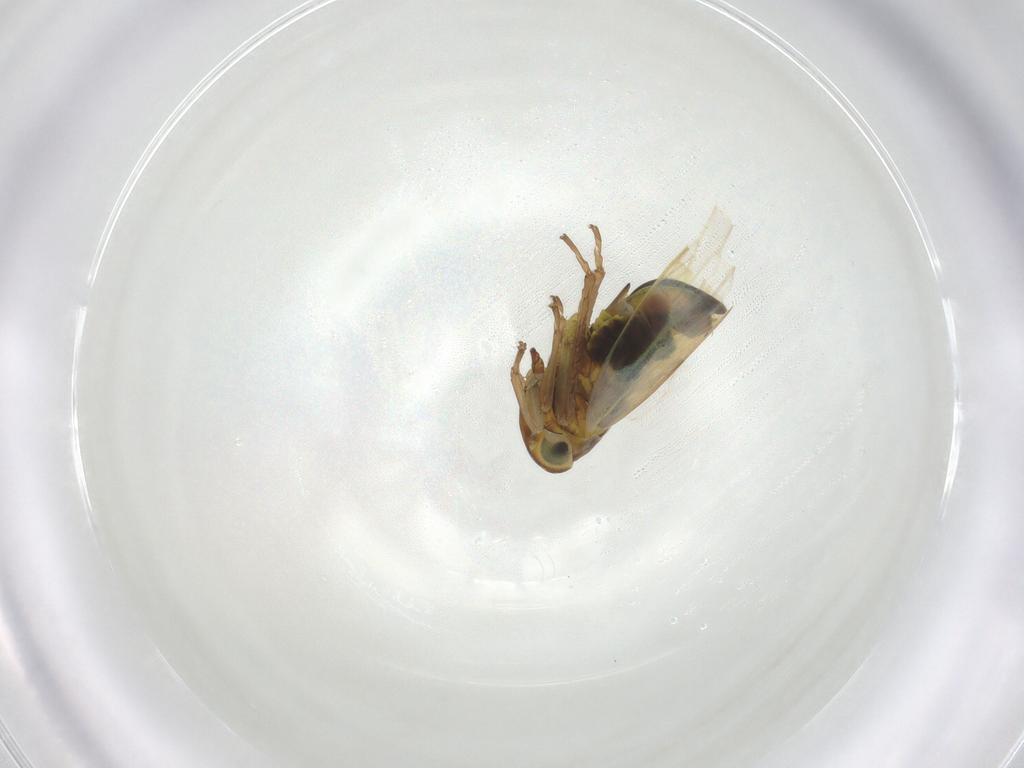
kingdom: Animalia
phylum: Arthropoda
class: Insecta
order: Hemiptera
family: Cicadellidae
